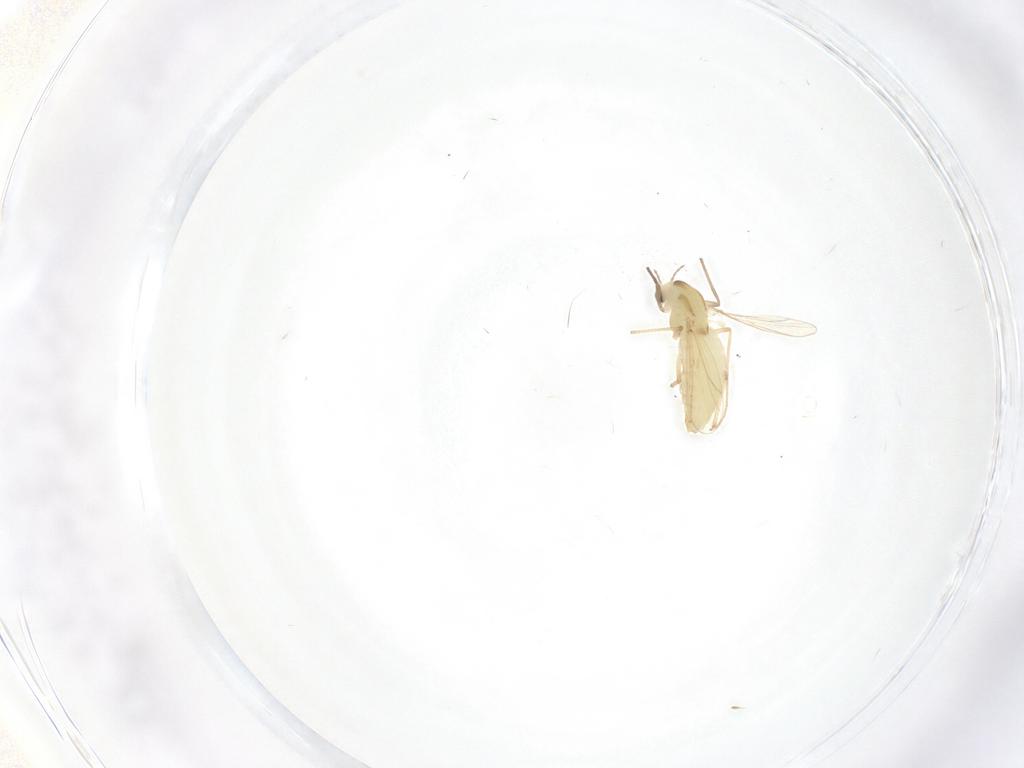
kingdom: Animalia
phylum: Arthropoda
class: Insecta
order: Diptera
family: Chironomidae
